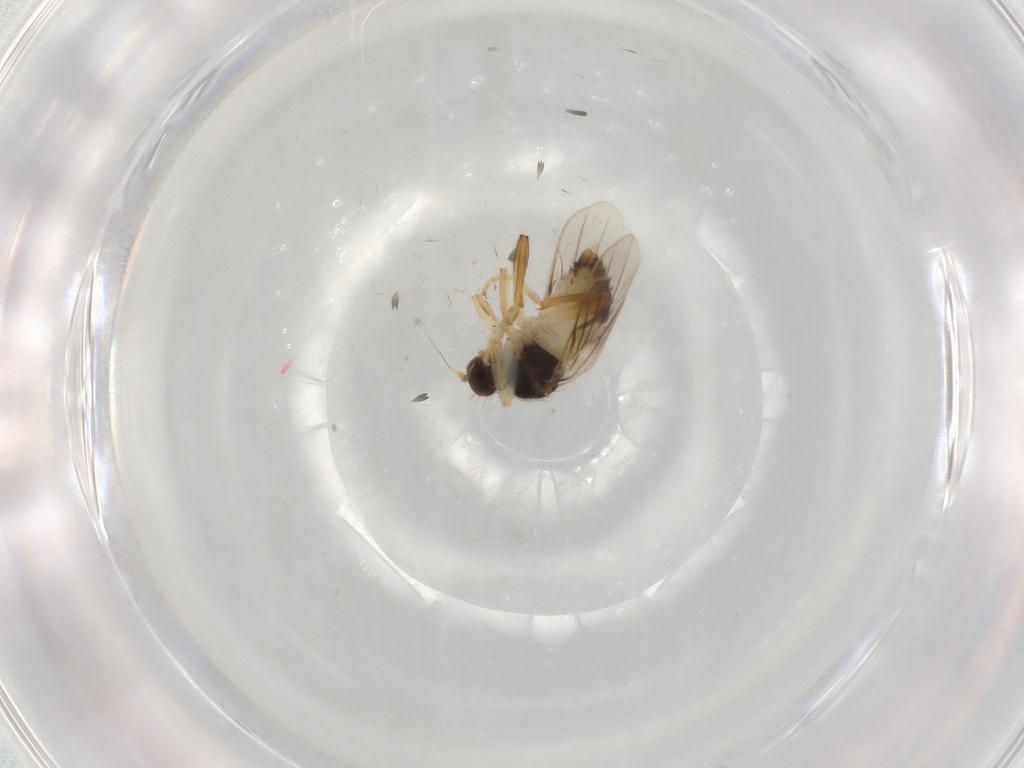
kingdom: Animalia
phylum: Arthropoda
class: Insecta
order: Diptera
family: Hybotidae
